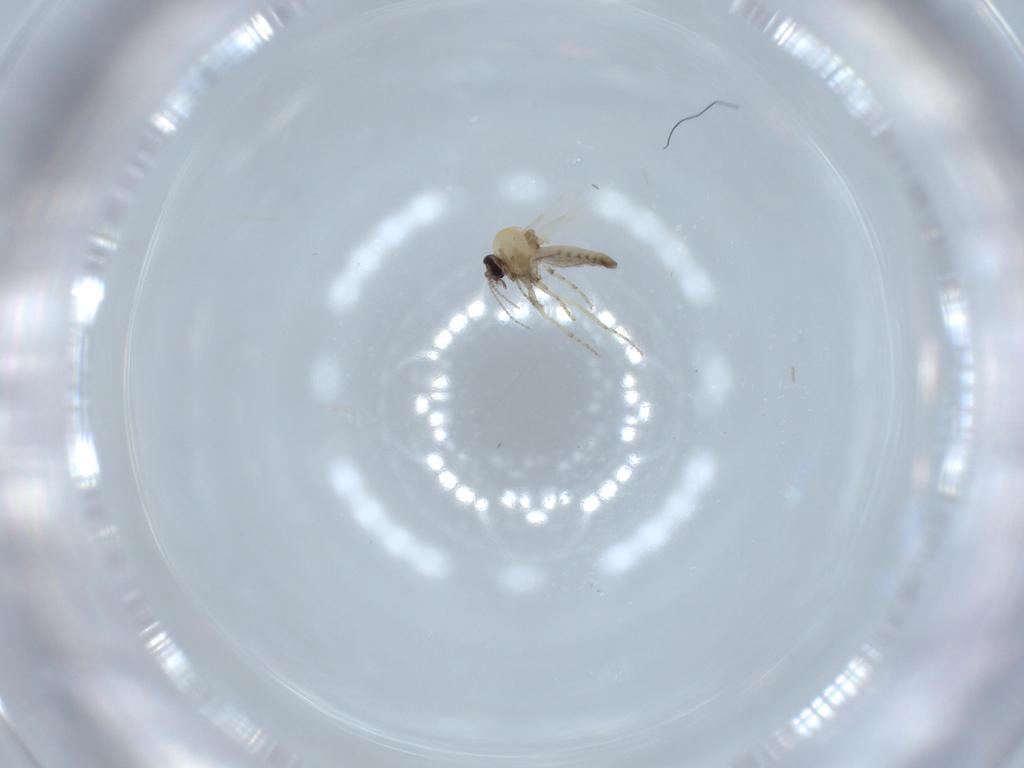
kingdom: Animalia
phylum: Arthropoda
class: Insecta
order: Diptera
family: Ceratopogonidae
